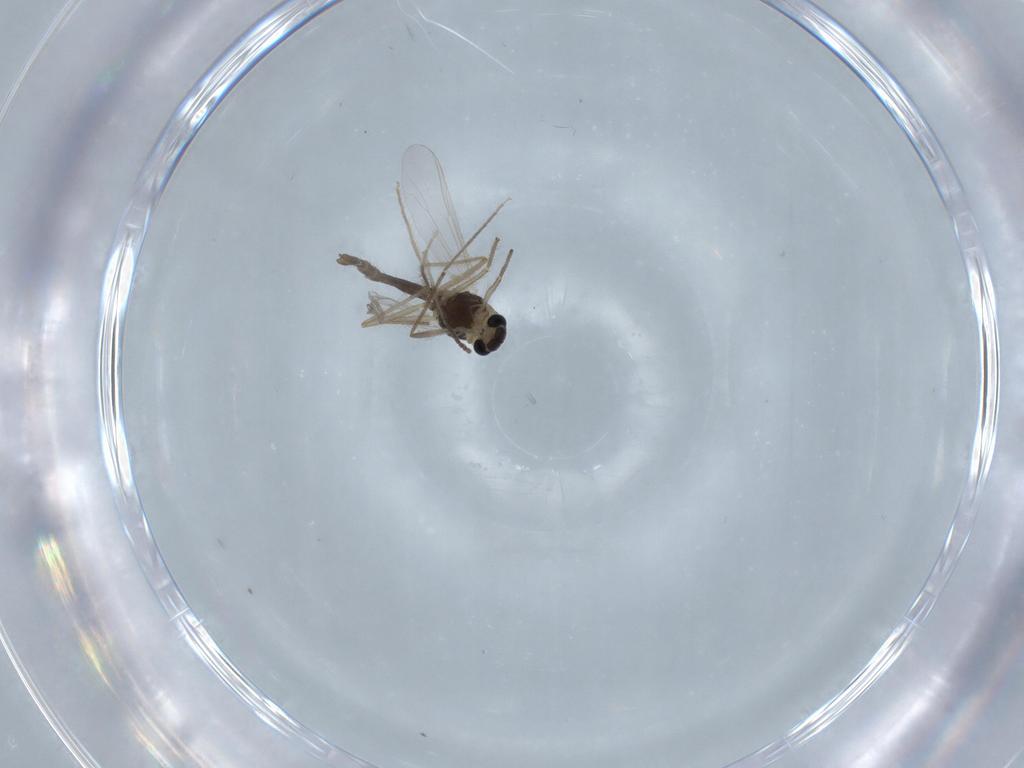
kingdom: Animalia
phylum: Arthropoda
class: Insecta
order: Diptera
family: Chironomidae
